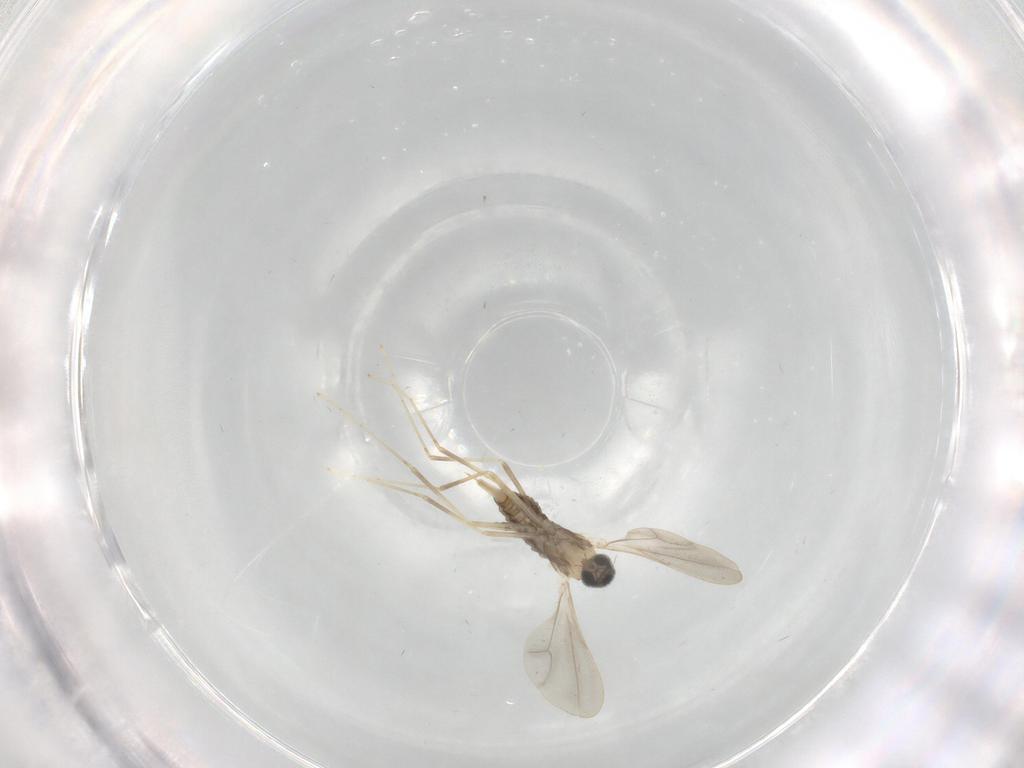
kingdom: Animalia
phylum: Arthropoda
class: Insecta
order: Diptera
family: Cecidomyiidae
